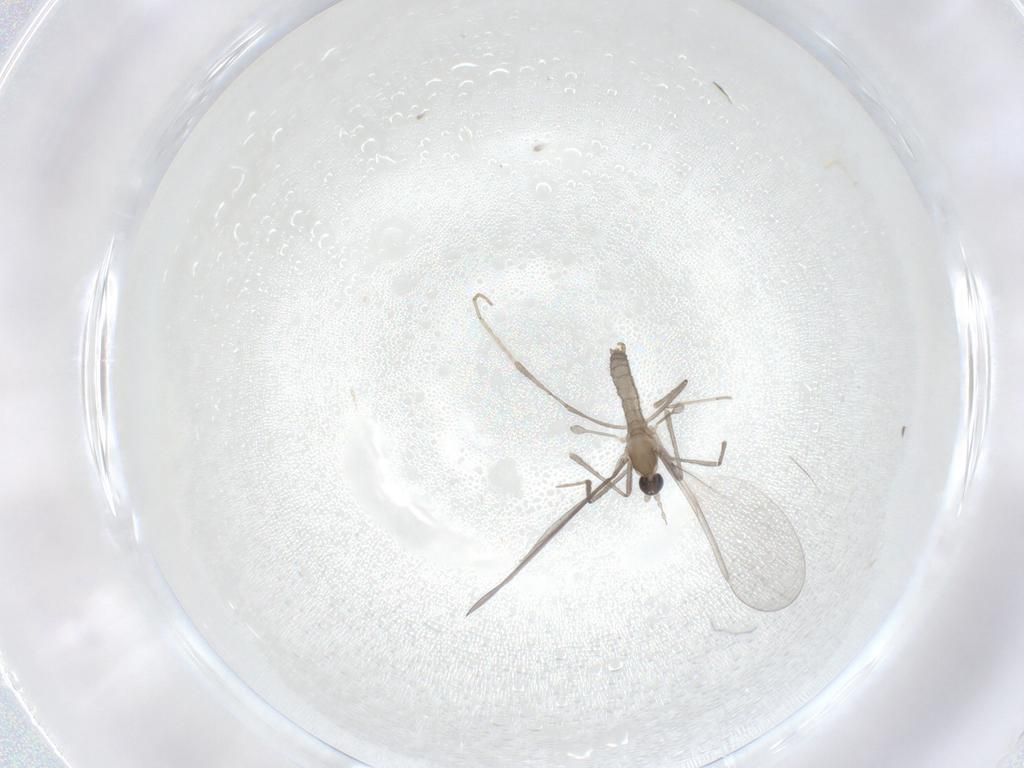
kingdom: Animalia
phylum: Arthropoda
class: Insecta
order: Diptera
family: Cecidomyiidae
